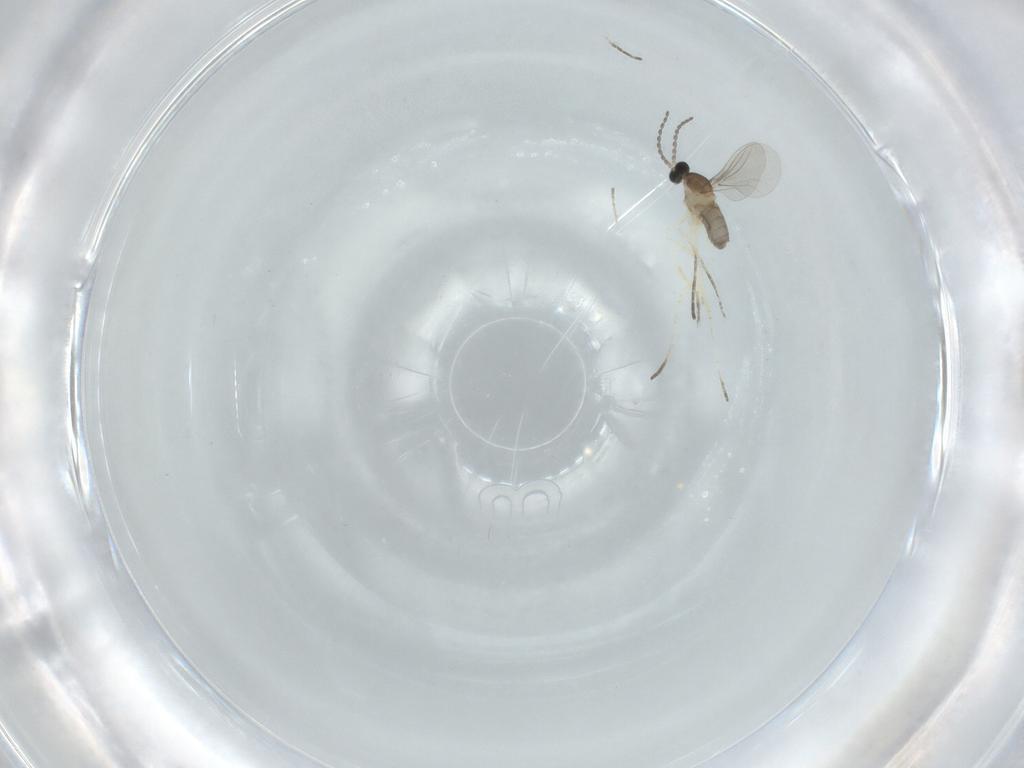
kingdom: Animalia
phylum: Arthropoda
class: Insecta
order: Diptera
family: Cecidomyiidae
